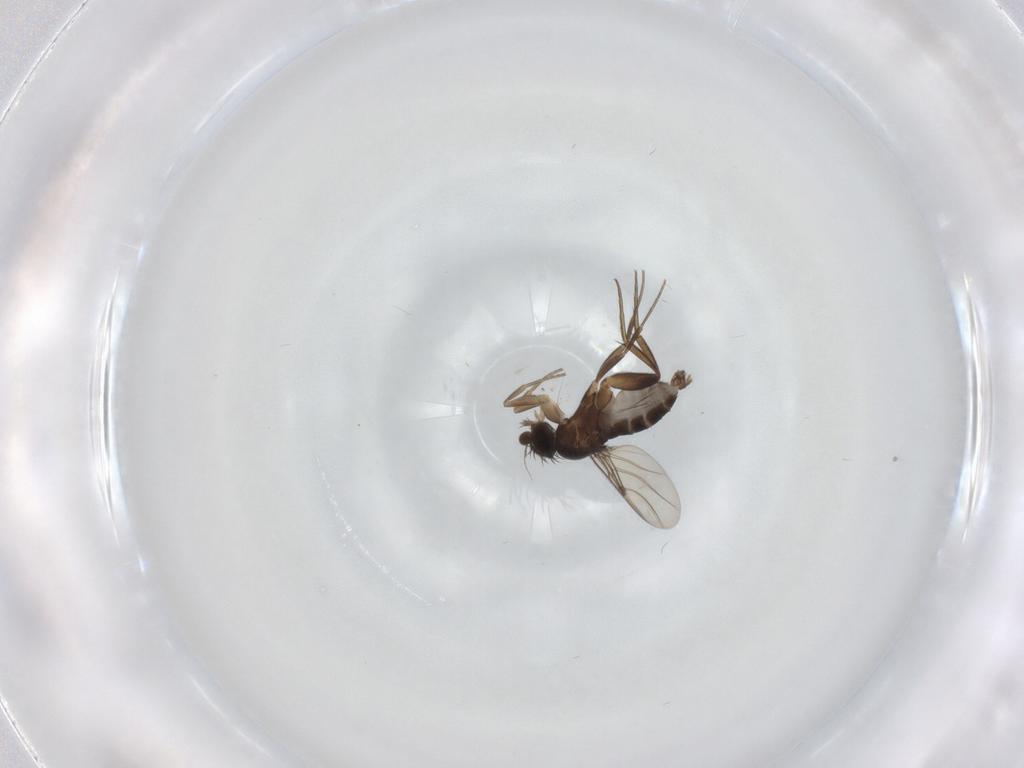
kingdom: Animalia
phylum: Arthropoda
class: Insecta
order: Diptera
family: Phoridae
